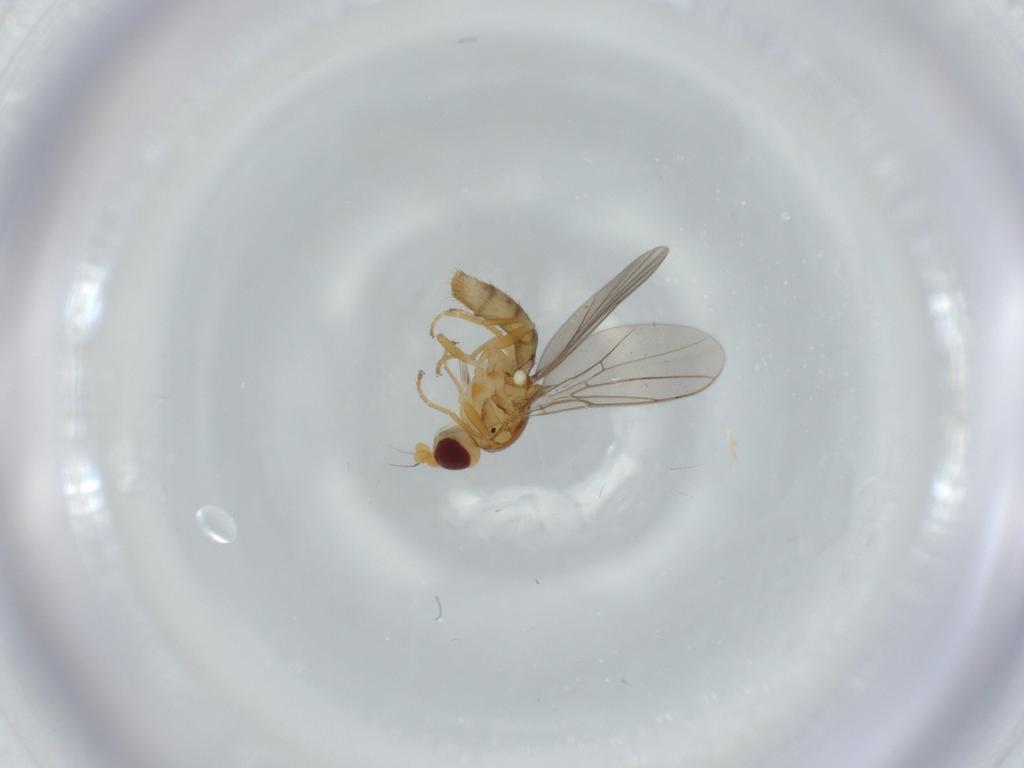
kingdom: Animalia
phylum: Arthropoda
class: Insecta
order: Diptera
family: Chloropidae
